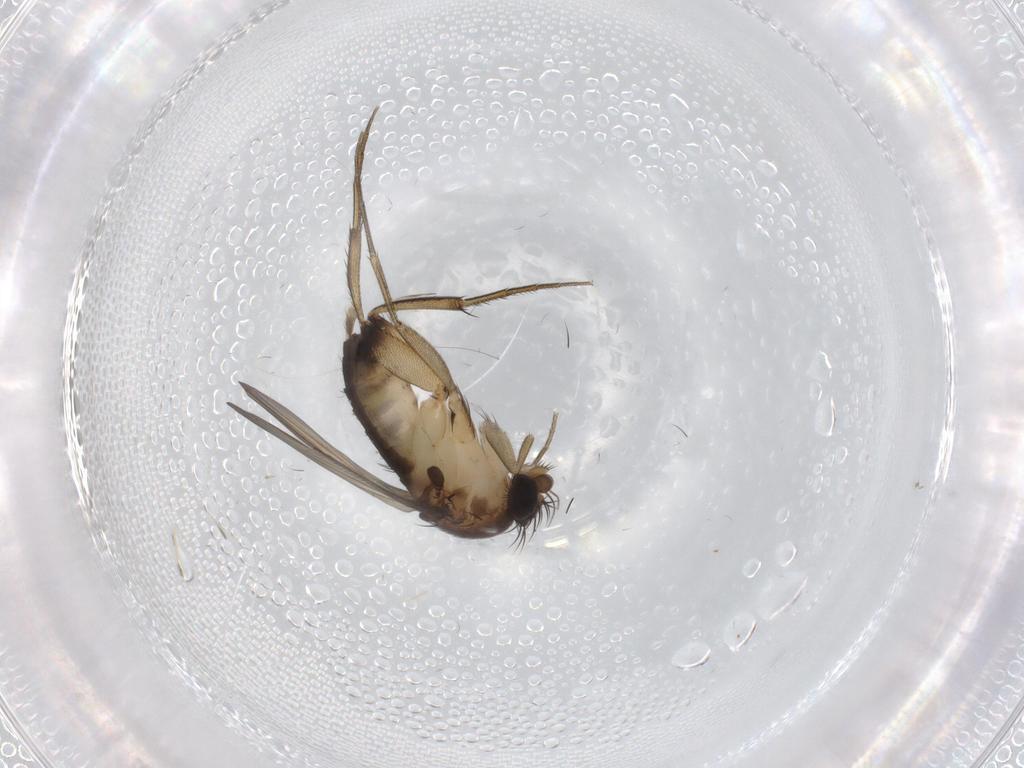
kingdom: Animalia
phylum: Arthropoda
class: Insecta
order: Diptera
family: Phoridae
